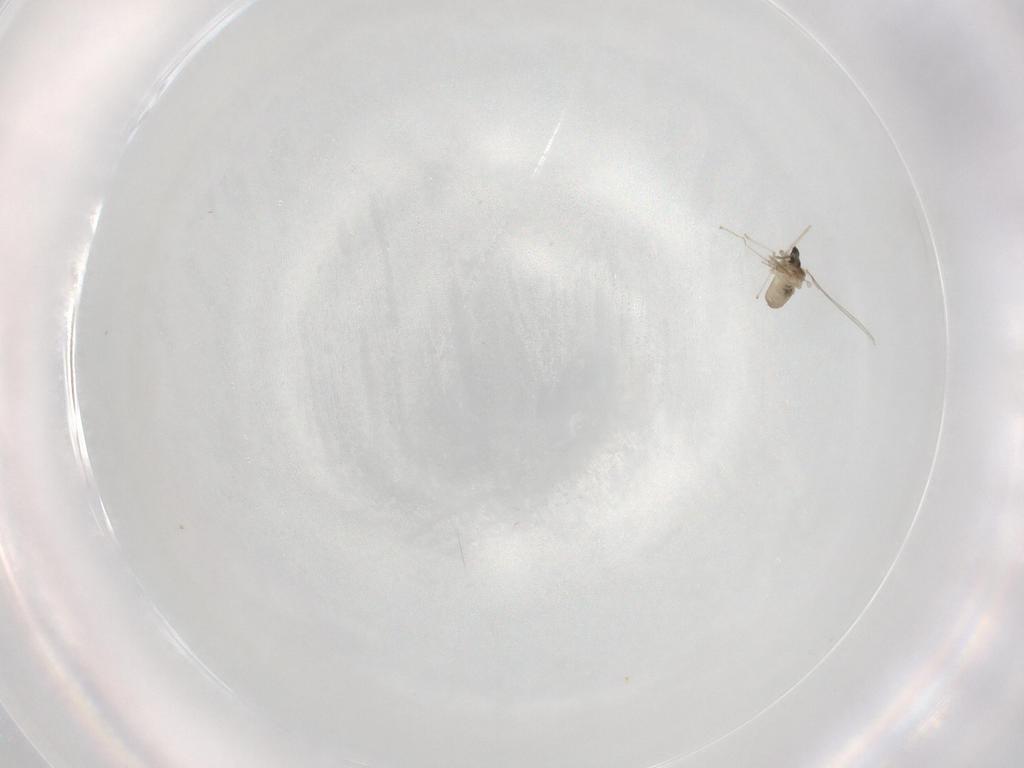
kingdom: Animalia
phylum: Arthropoda
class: Insecta
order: Diptera
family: Cecidomyiidae
